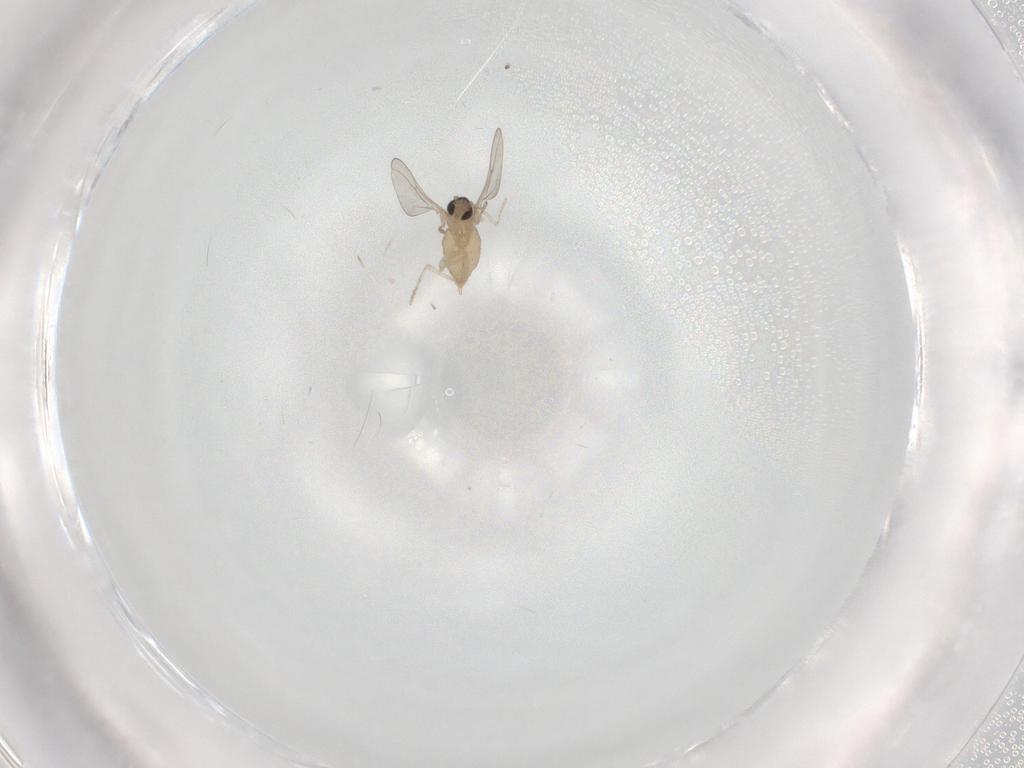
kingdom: Animalia
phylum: Arthropoda
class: Insecta
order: Diptera
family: Cecidomyiidae
